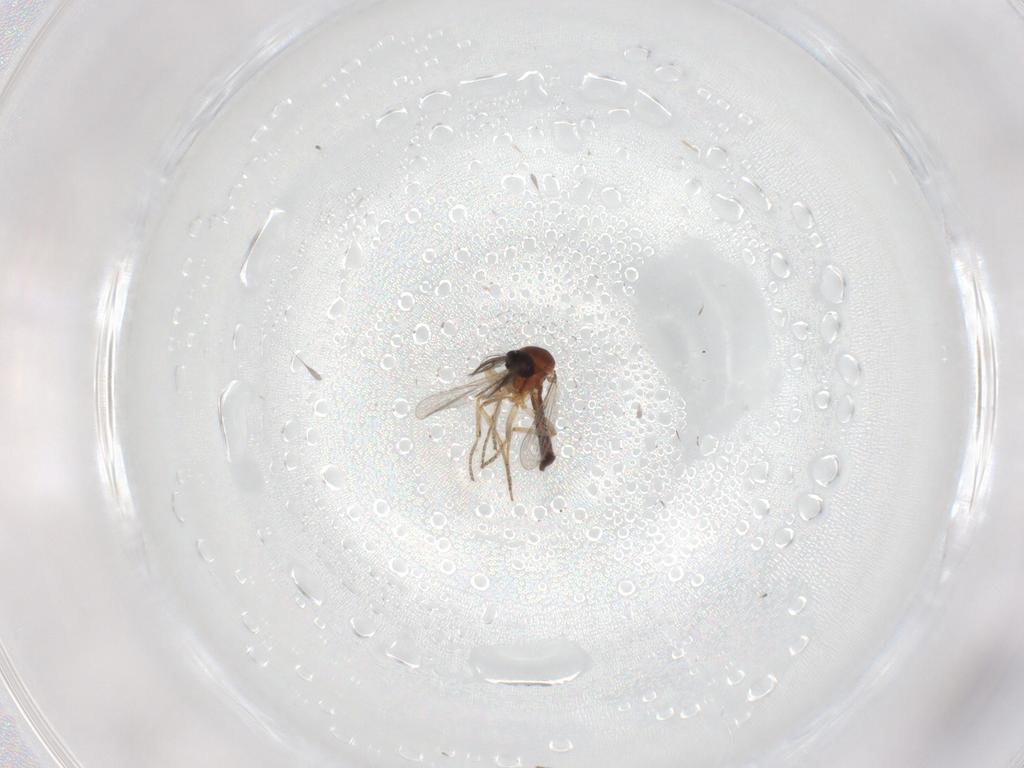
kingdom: Animalia
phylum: Arthropoda
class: Insecta
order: Diptera
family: Ceratopogonidae
